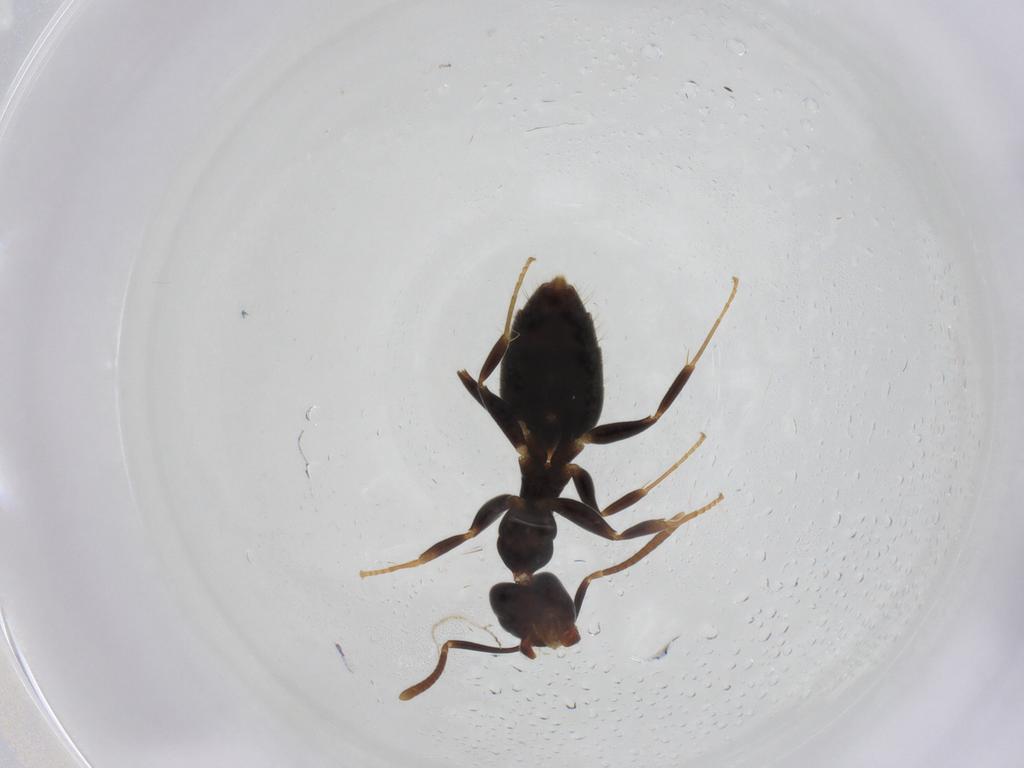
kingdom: Animalia
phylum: Arthropoda
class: Insecta
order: Hymenoptera
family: Formicidae
